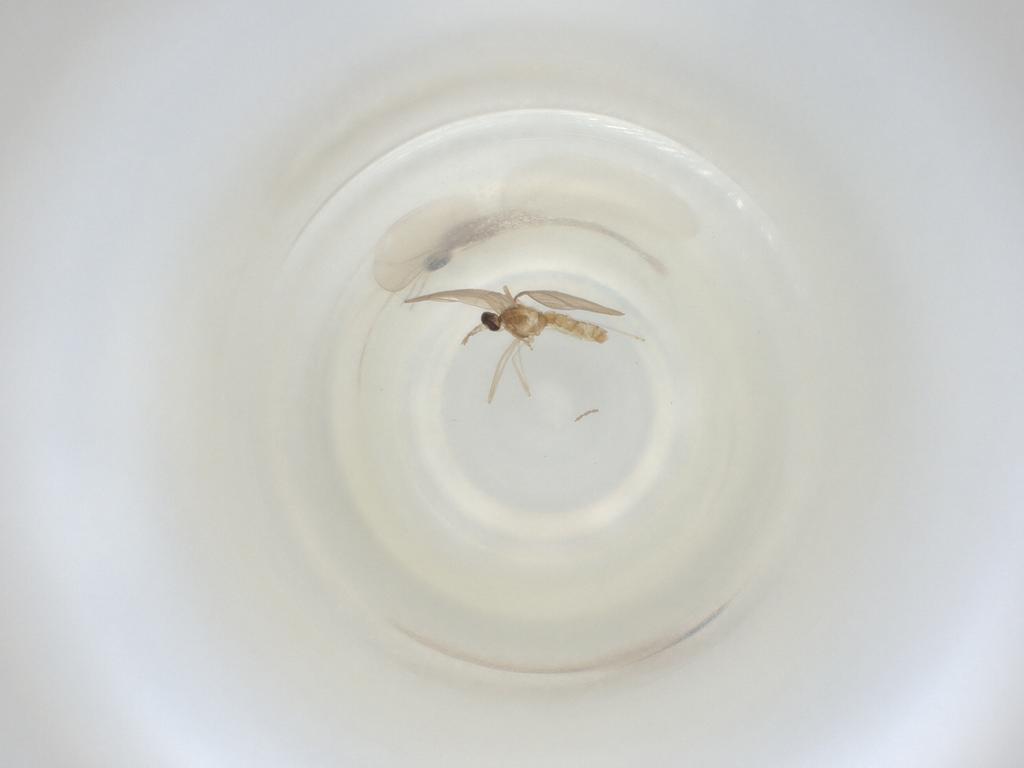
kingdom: Animalia
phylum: Arthropoda
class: Insecta
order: Diptera
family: Cecidomyiidae
